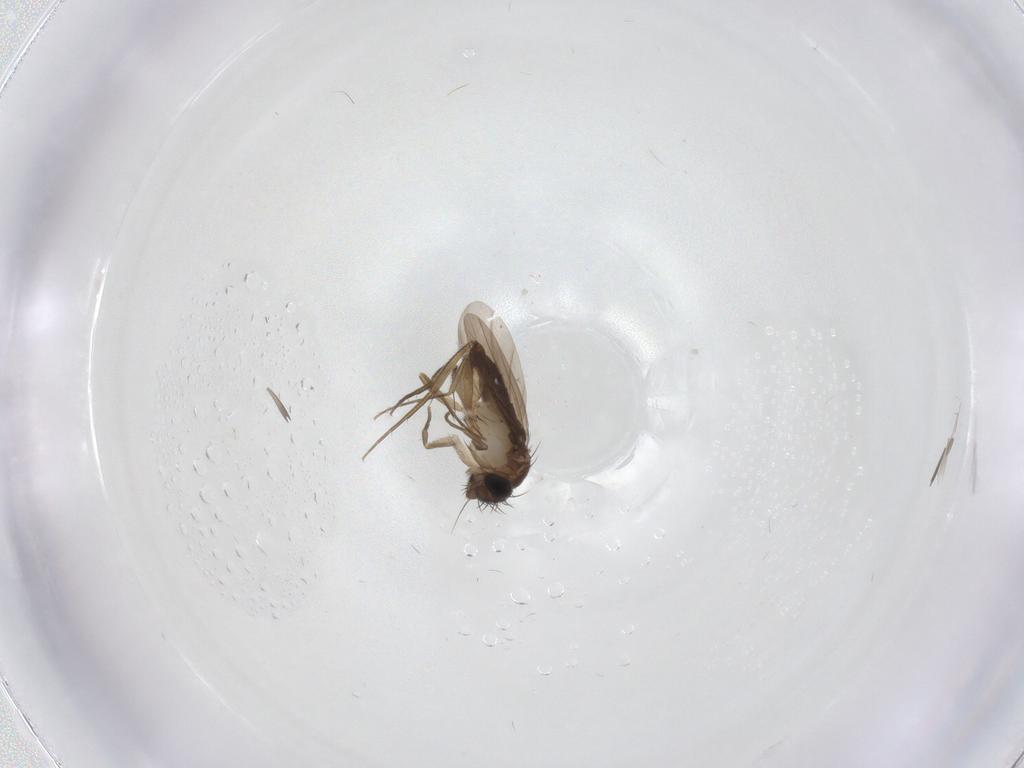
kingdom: Animalia
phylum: Arthropoda
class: Insecta
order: Diptera
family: Phoridae
